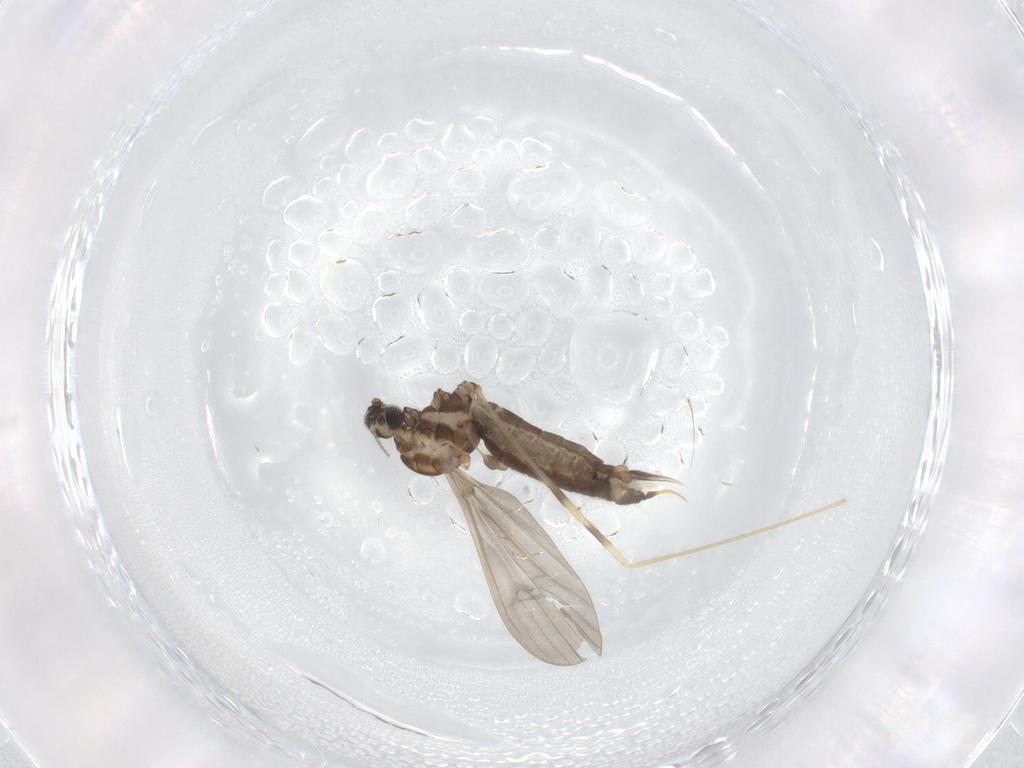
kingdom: Animalia
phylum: Arthropoda
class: Insecta
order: Diptera
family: Limoniidae
